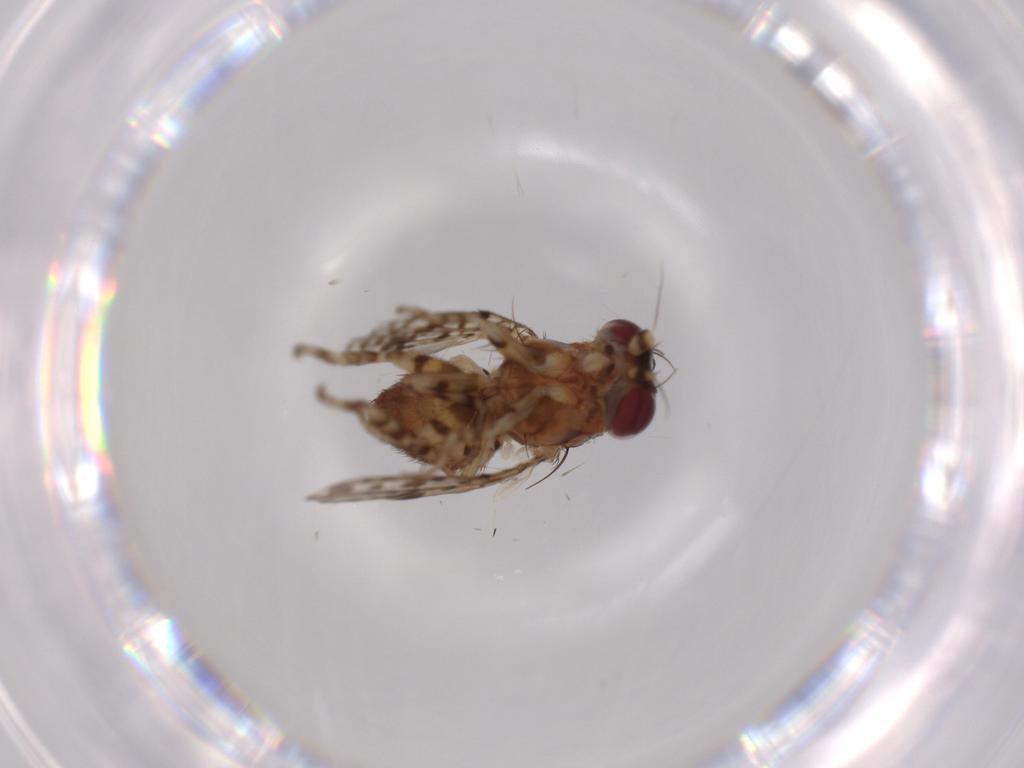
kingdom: Animalia
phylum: Arthropoda
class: Insecta
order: Diptera
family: Odiniidae
